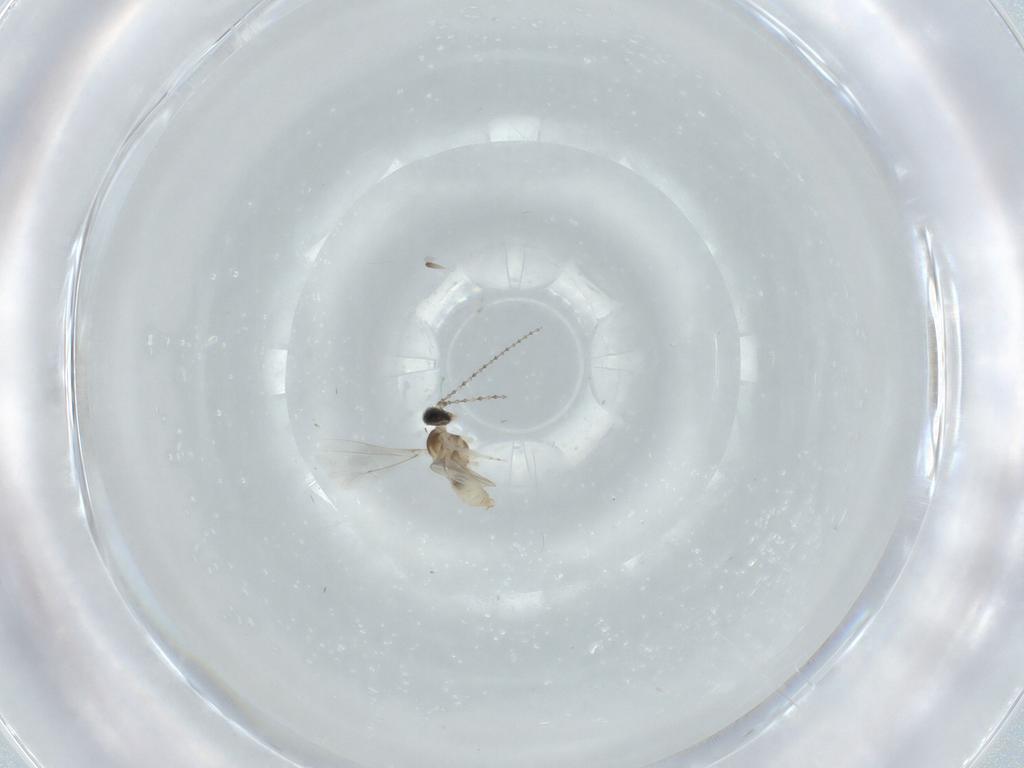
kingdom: Animalia
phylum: Arthropoda
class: Insecta
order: Diptera
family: Cecidomyiidae
